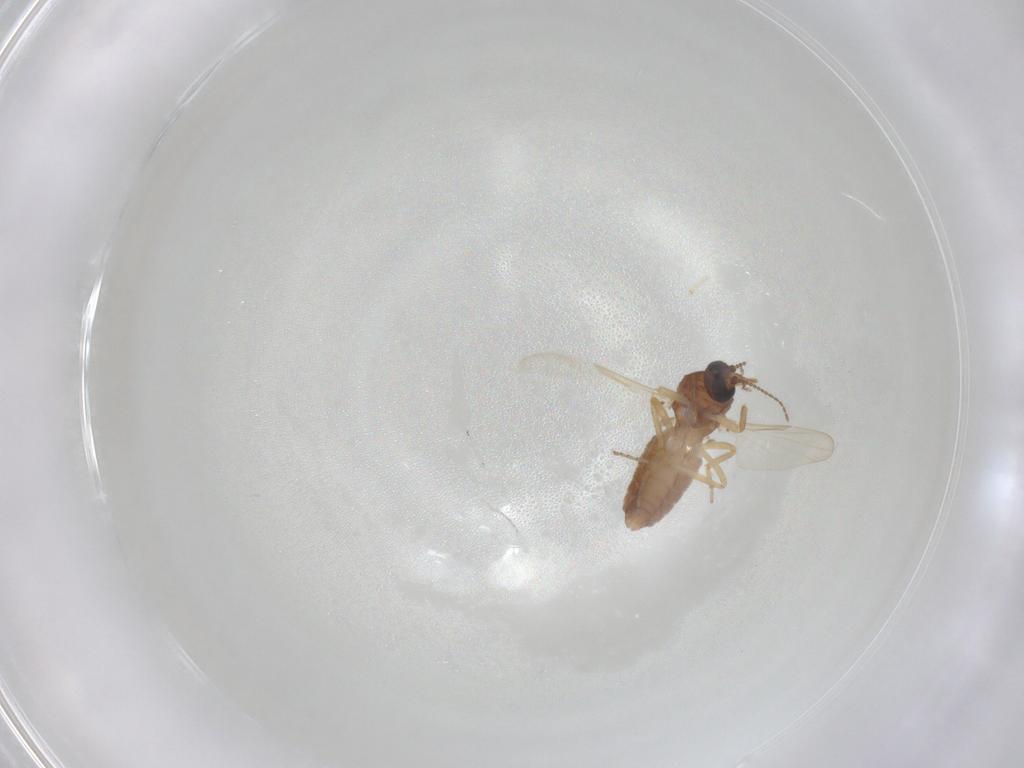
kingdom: Animalia
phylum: Arthropoda
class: Insecta
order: Diptera
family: Ceratopogonidae
